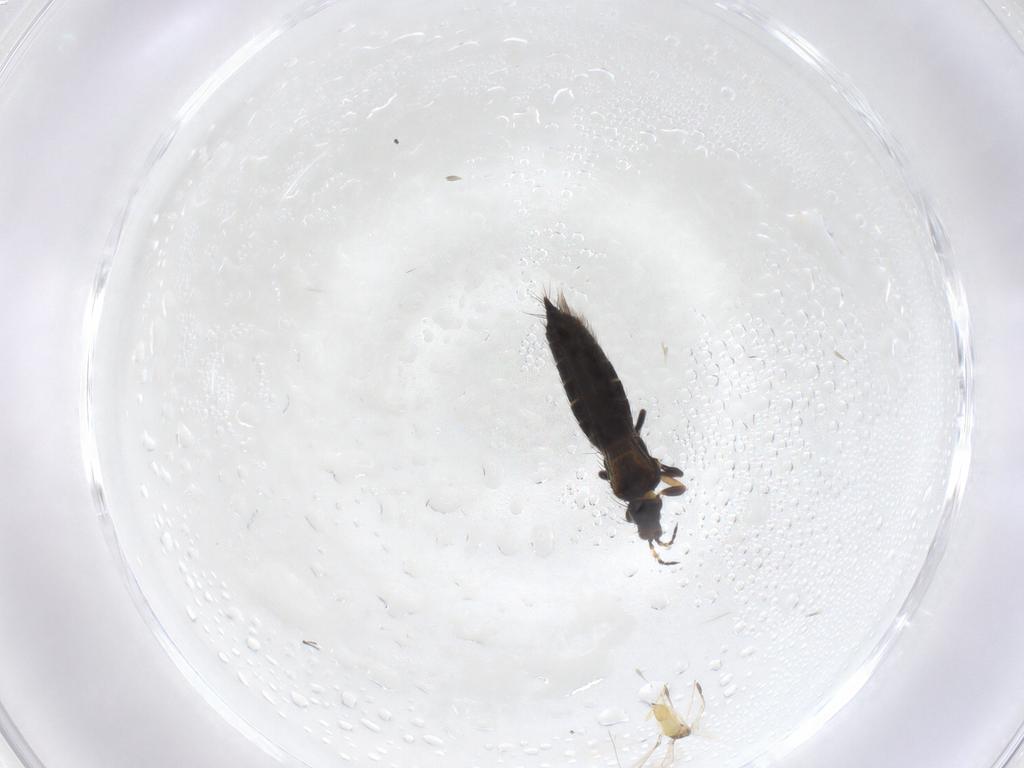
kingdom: Animalia
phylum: Arthropoda
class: Insecta
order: Hymenoptera
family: Mymaridae
